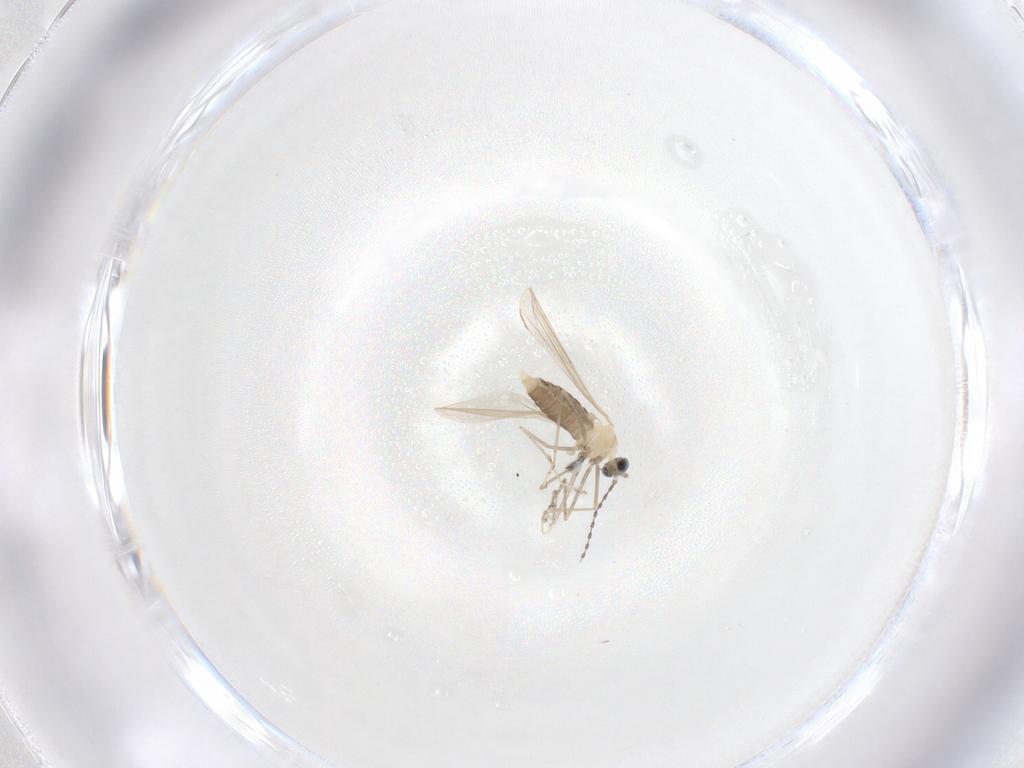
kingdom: Animalia
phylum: Arthropoda
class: Insecta
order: Diptera
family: Cecidomyiidae
